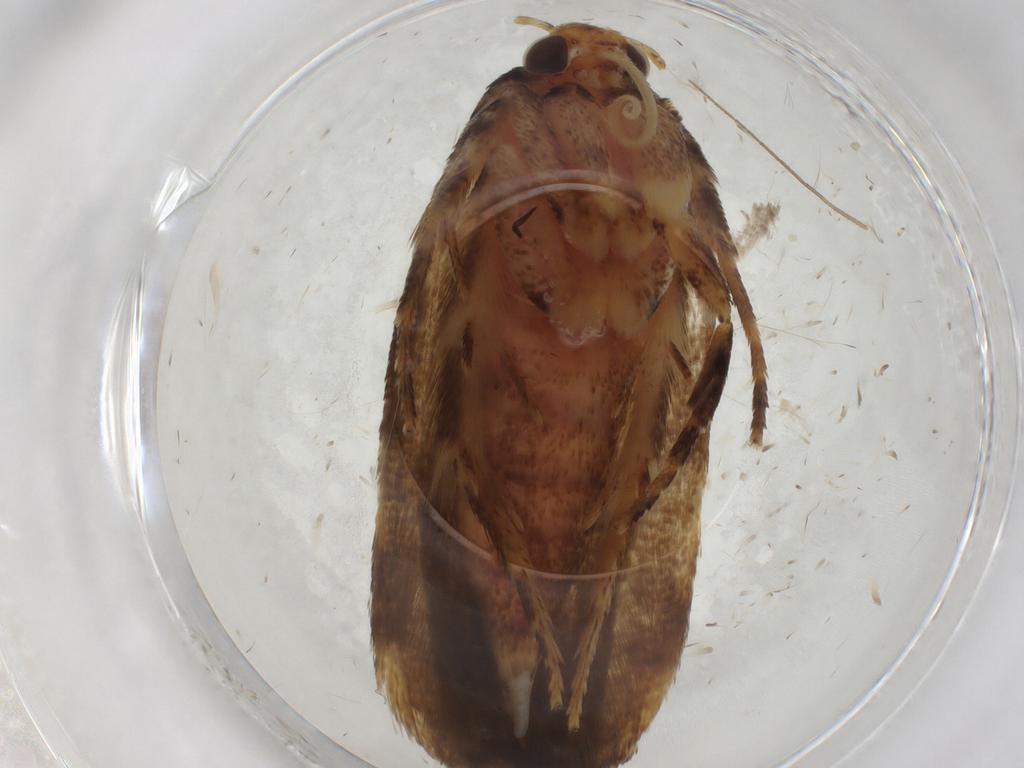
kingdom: Animalia
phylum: Arthropoda
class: Insecta
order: Lepidoptera
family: Gelechiidae
